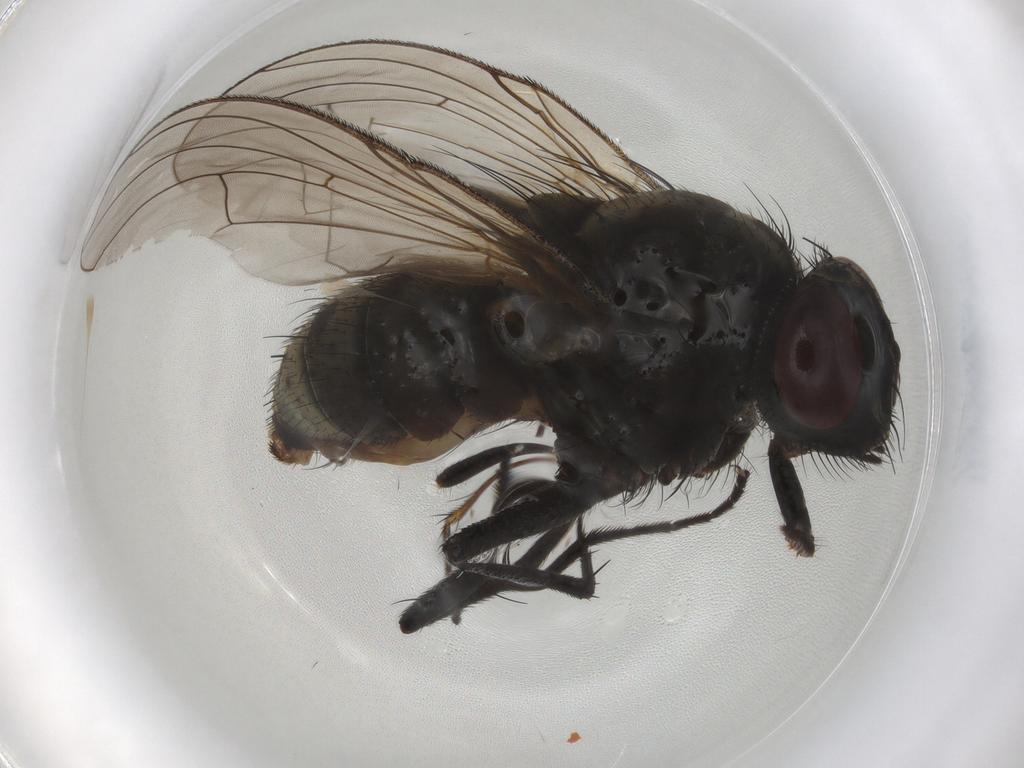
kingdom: Animalia
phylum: Arthropoda
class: Insecta
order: Diptera
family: Muscidae
